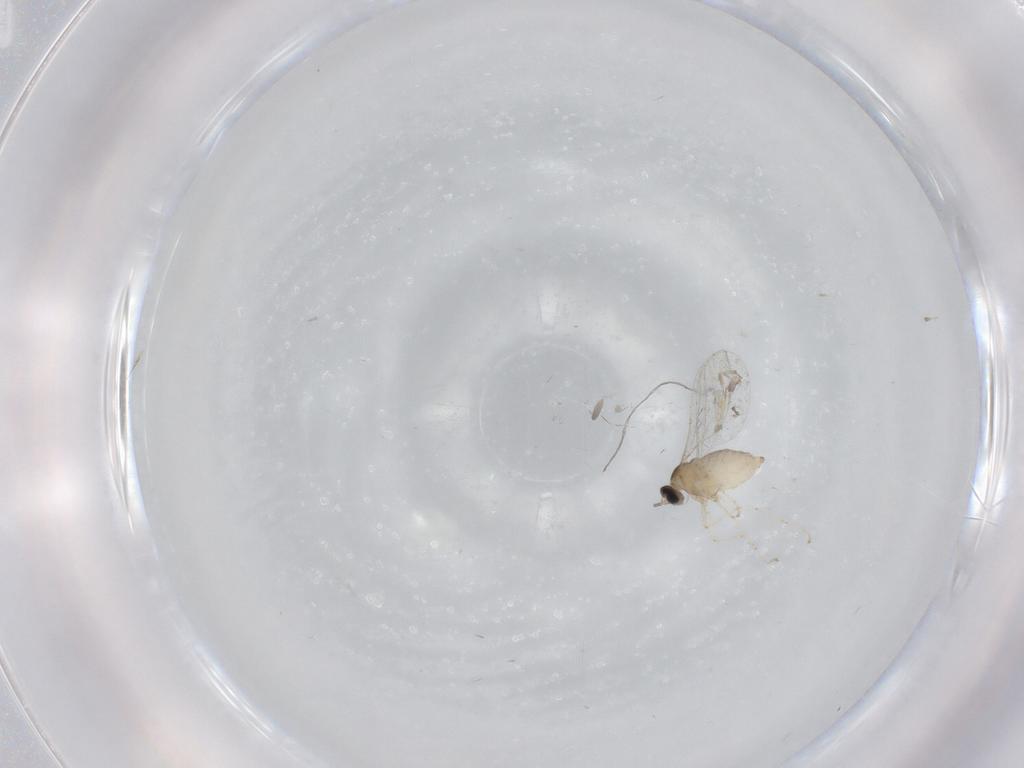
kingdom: Animalia
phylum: Arthropoda
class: Insecta
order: Diptera
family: Cecidomyiidae
